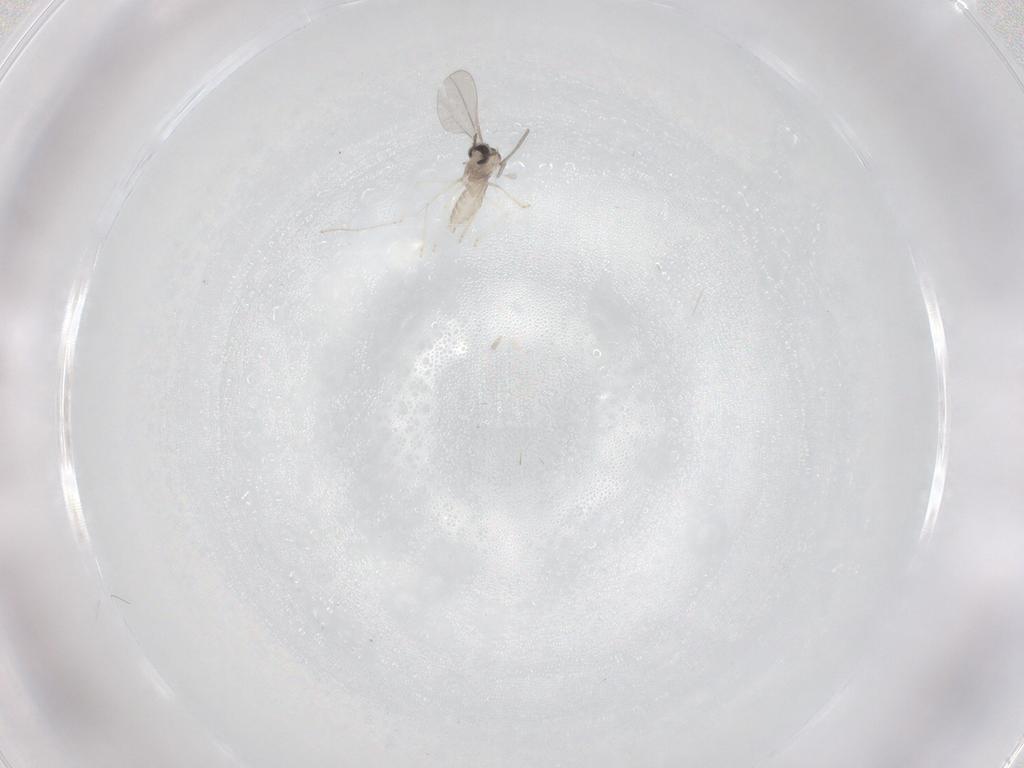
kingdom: Animalia
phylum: Arthropoda
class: Insecta
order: Diptera
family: Cecidomyiidae
